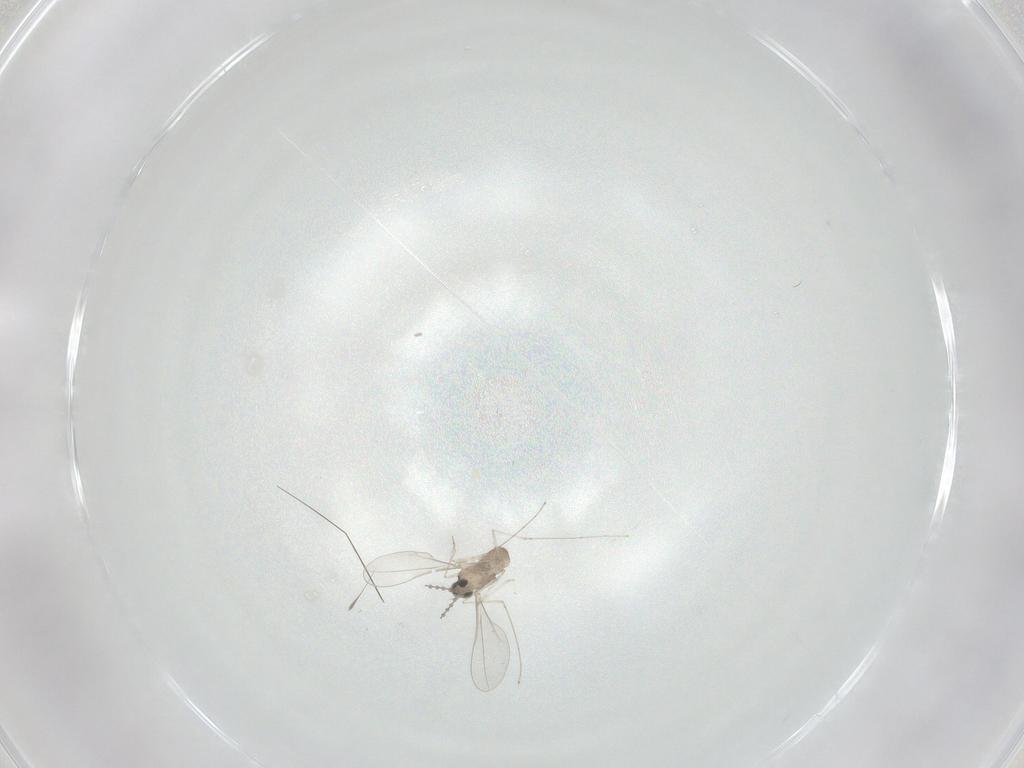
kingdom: Animalia
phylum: Arthropoda
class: Insecta
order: Diptera
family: Cecidomyiidae
